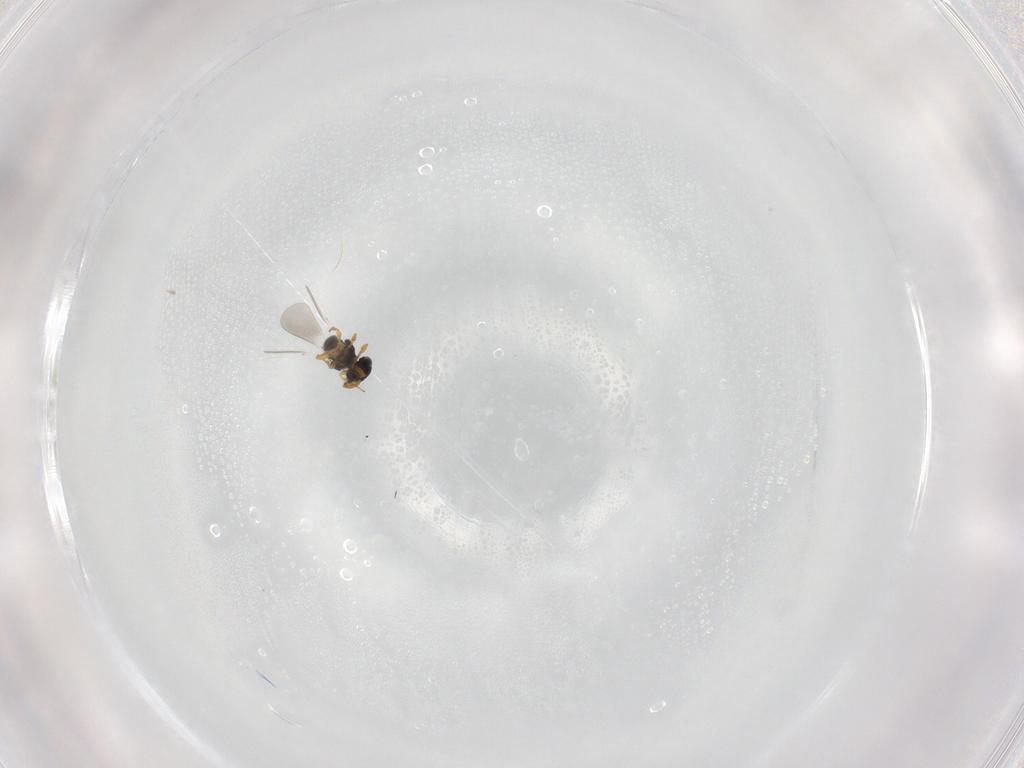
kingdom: Animalia
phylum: Arthropoda
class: Insecta
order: Hymenoptera
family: Platygastridae
